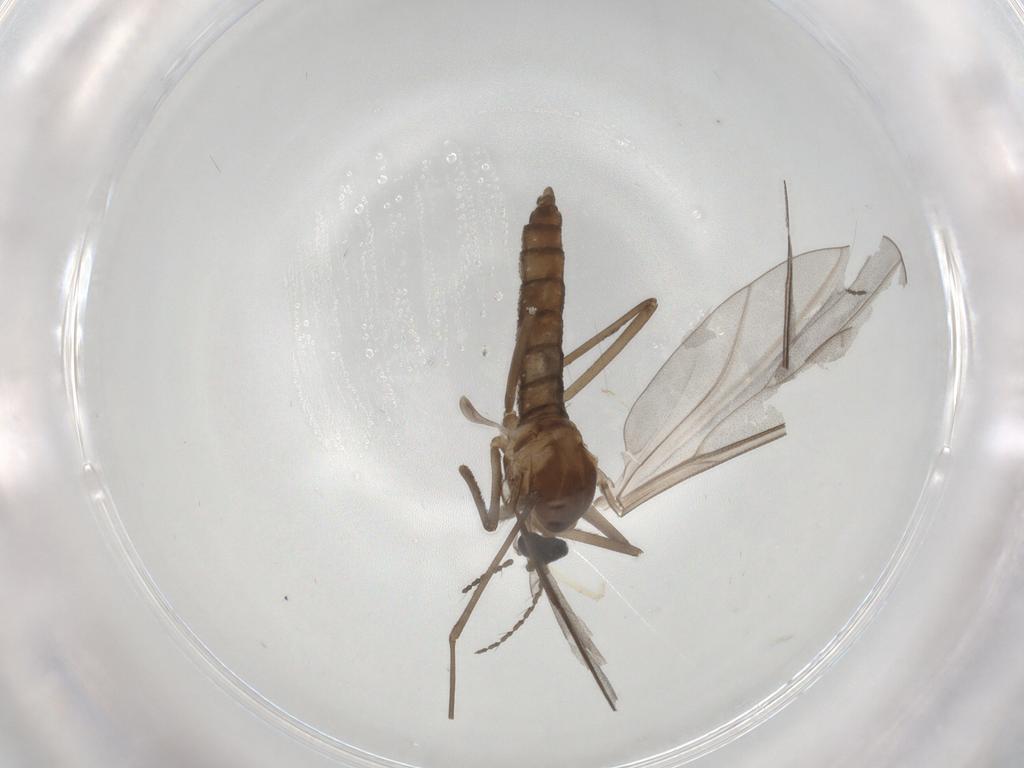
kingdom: Animalia
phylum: Arthropoda
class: Insecta
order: Diptera
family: Cecidomyiidae
